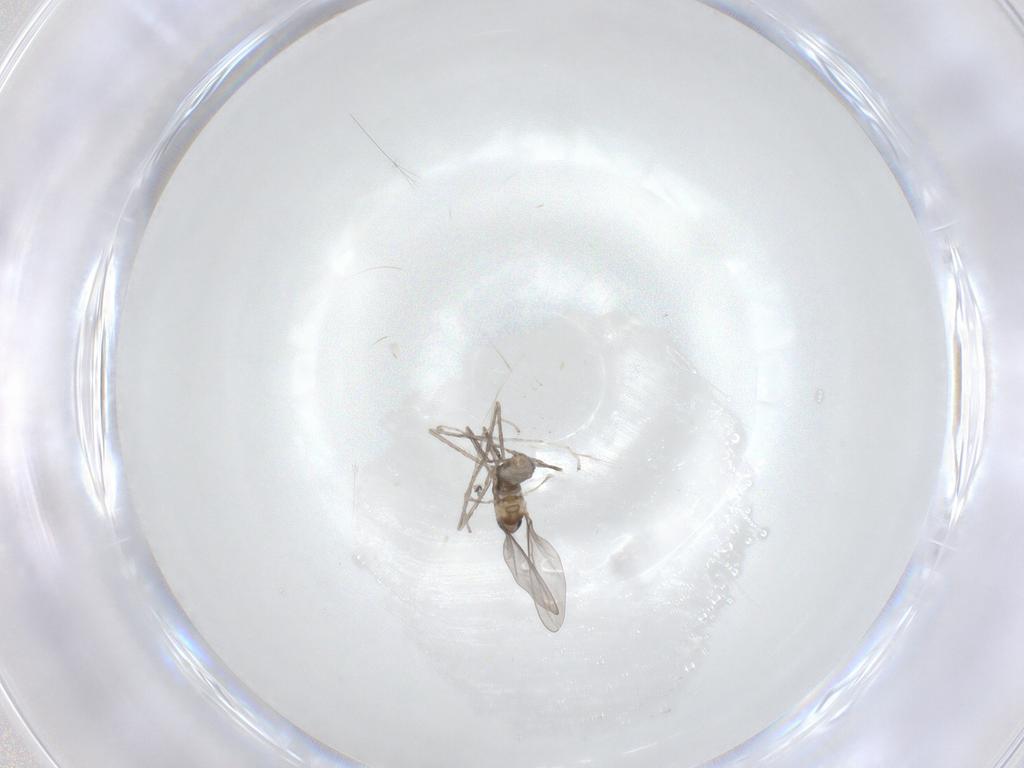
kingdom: Animalia
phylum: Arthropoda
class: Insecta
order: Diptera
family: Cecidomyiidae
